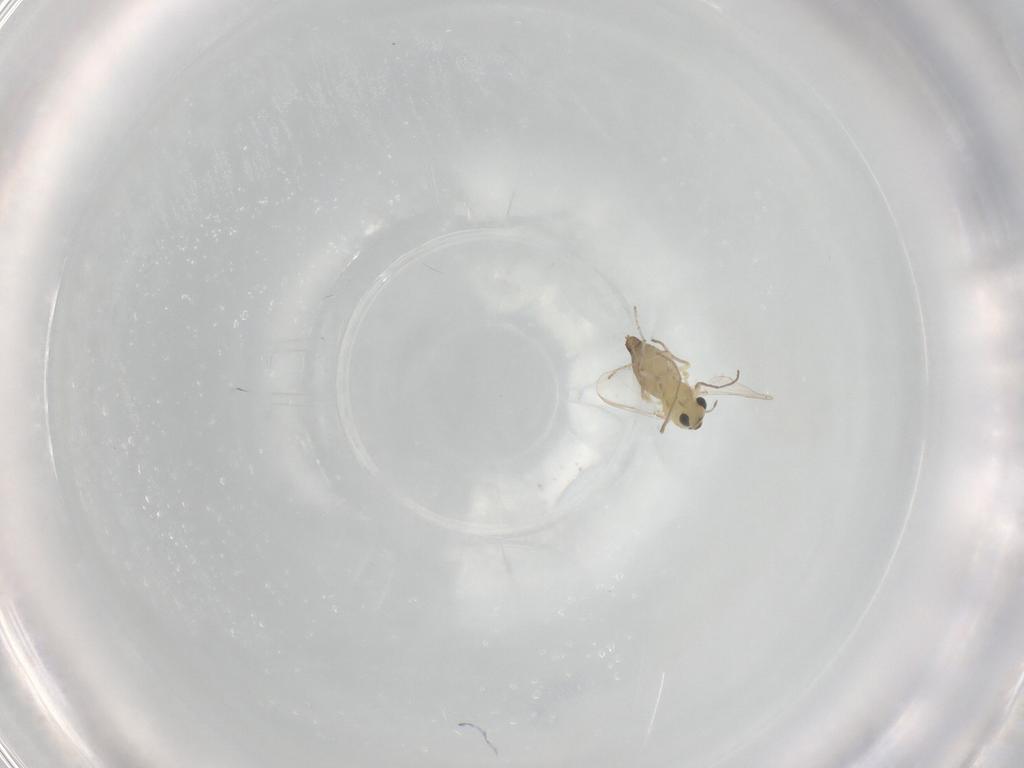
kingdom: Animalia
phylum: Arthropoda
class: Insecta
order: Diptera
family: Chironomidae
